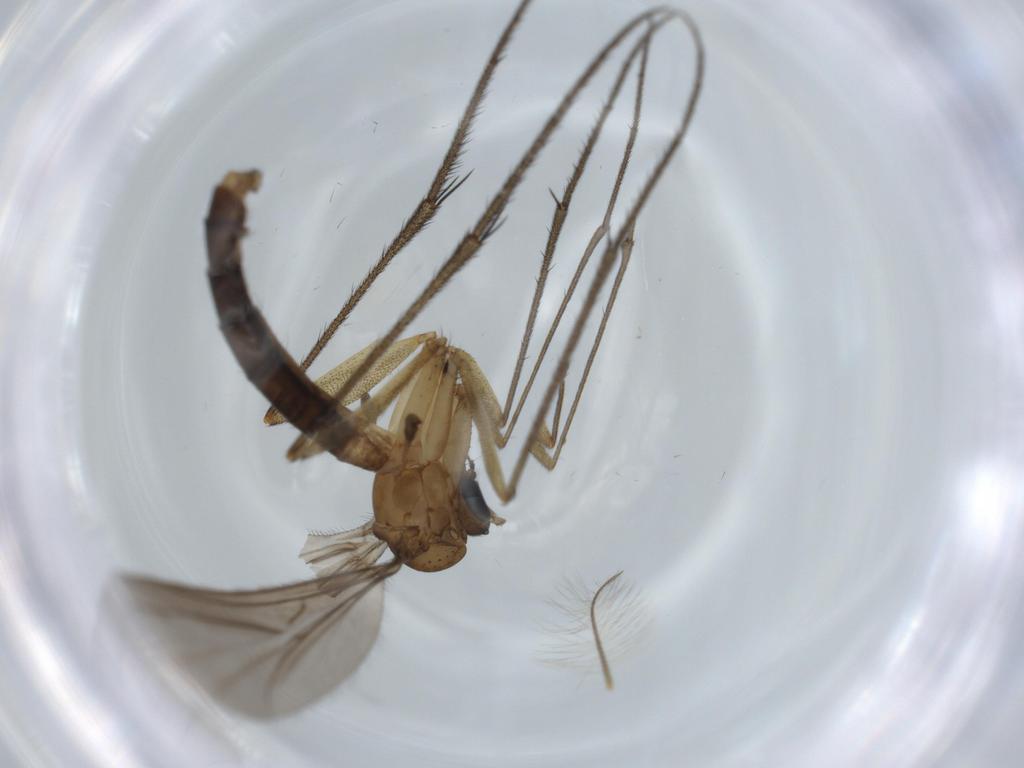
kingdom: Animalia
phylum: Arthropoda
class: Insecta
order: Diptera
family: Ditomyiidae
